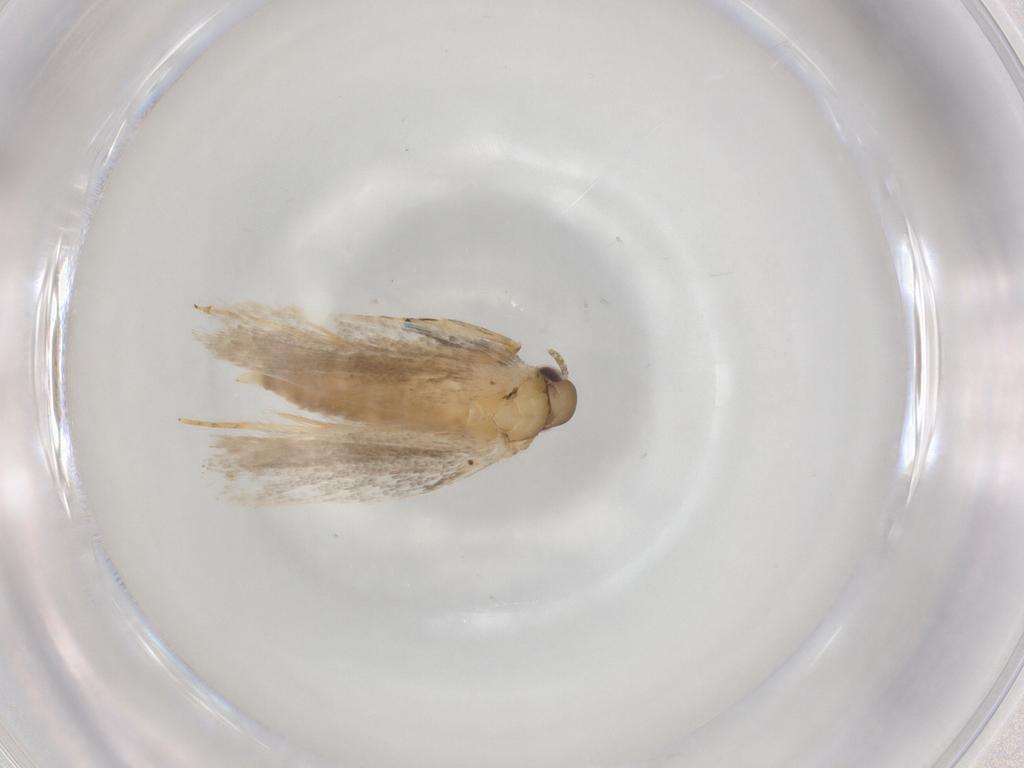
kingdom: Animalia
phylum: Arthropoda
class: Insecta
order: Lepidoptera
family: Autostichidae
